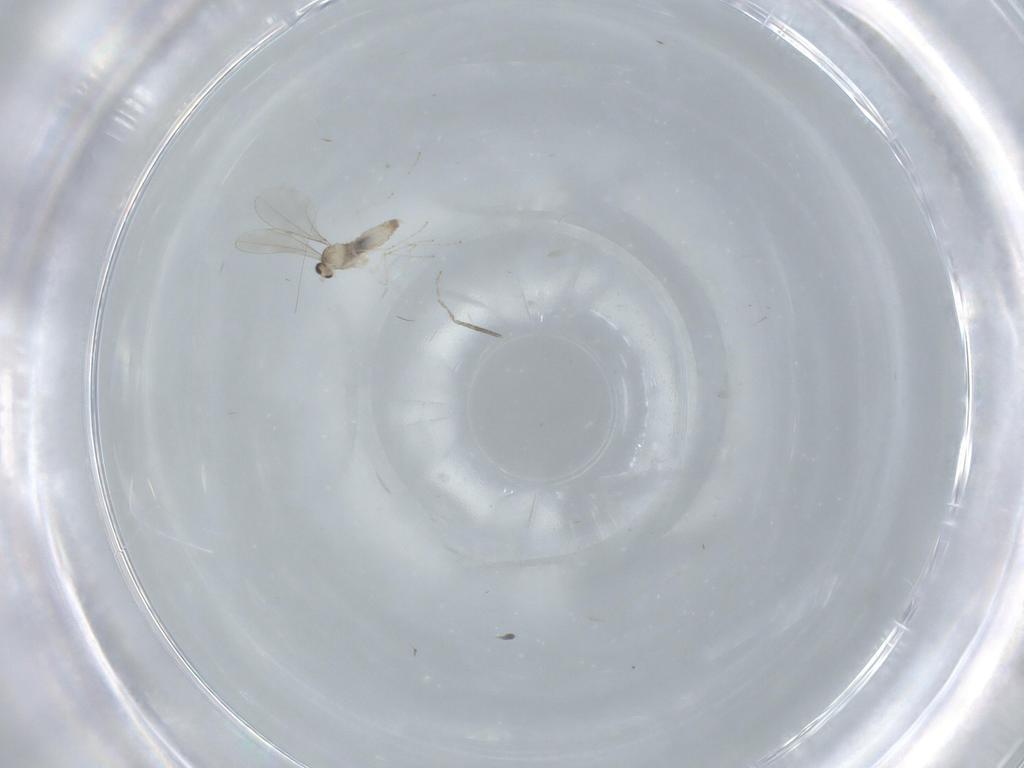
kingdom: Animalia
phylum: Arthropoda
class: Insecta
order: Diptera
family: Cecidomyiidae
